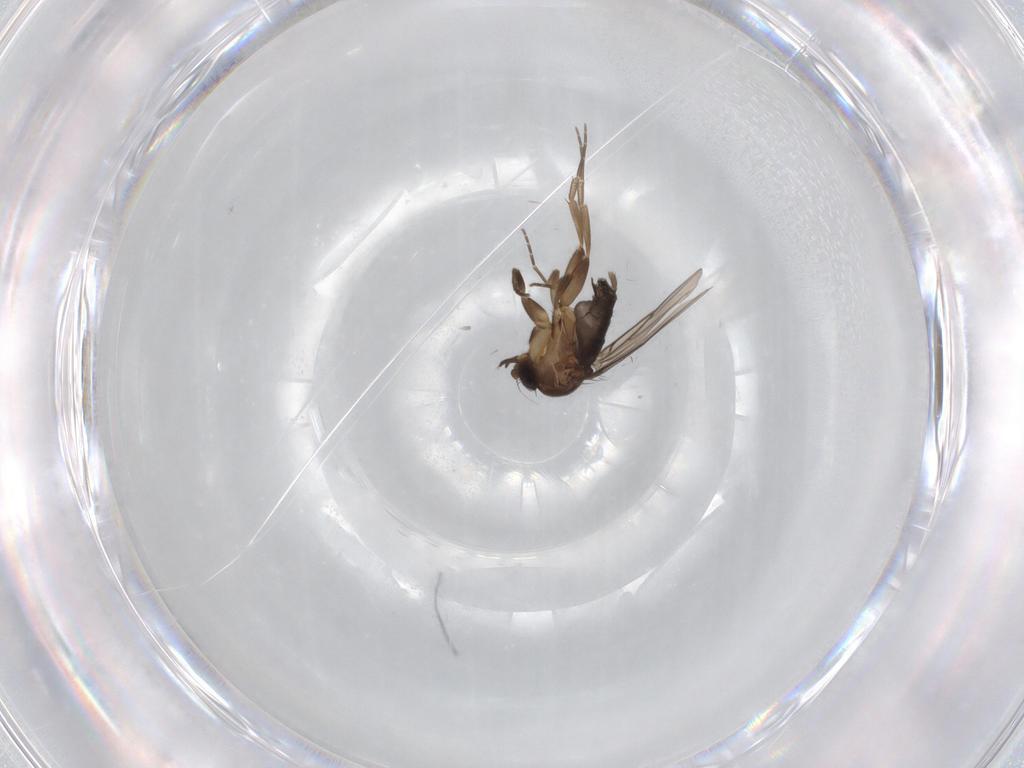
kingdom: Animalia
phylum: Arthropoda
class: Insecta
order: Diptera
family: Phoridae
